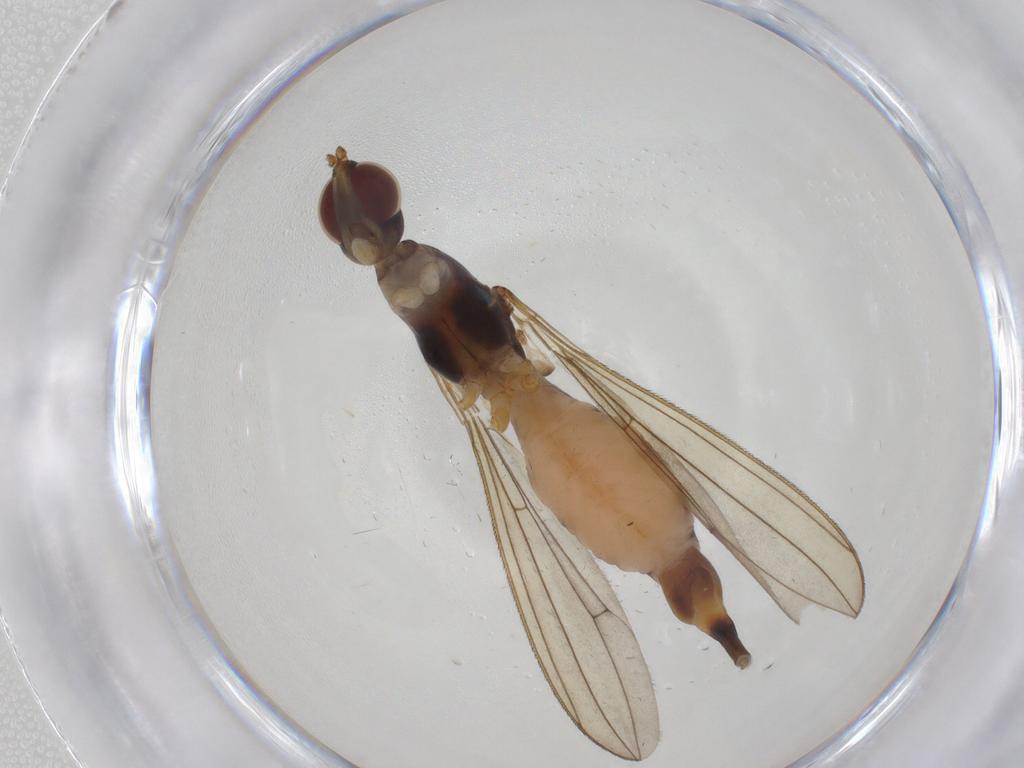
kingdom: Animalia
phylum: Arthropoda
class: Insecta
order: Diptera
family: Micropezidae
